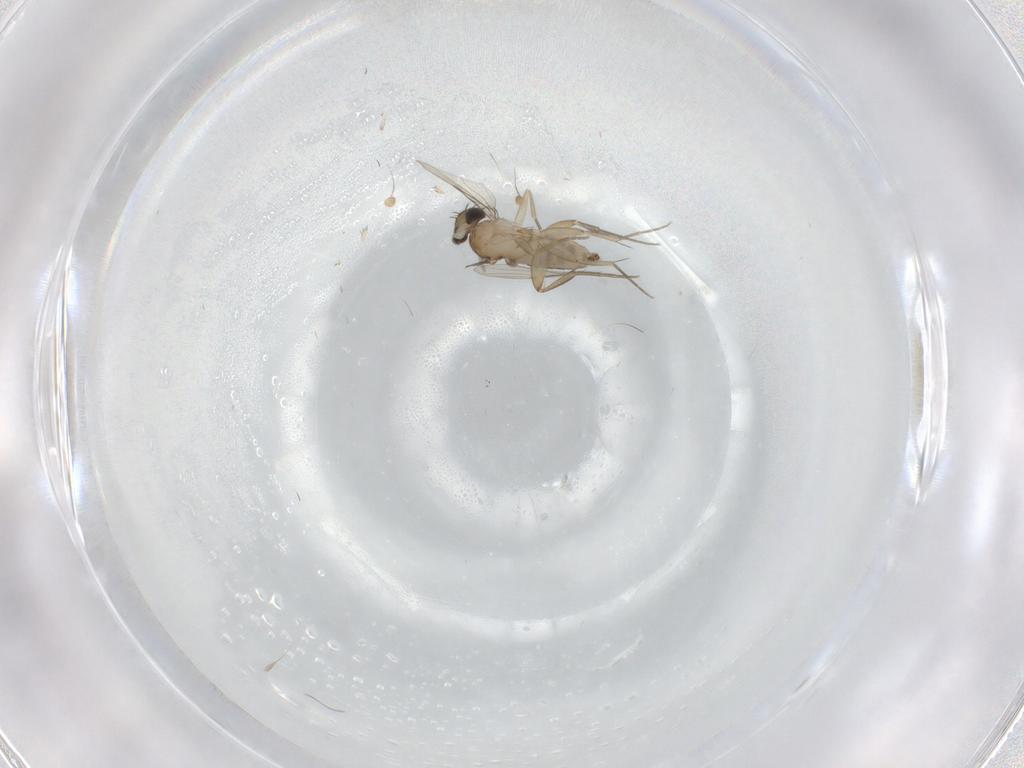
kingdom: Animalia
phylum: Arthropoda
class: Insecta
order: Diptera
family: Phoridae
